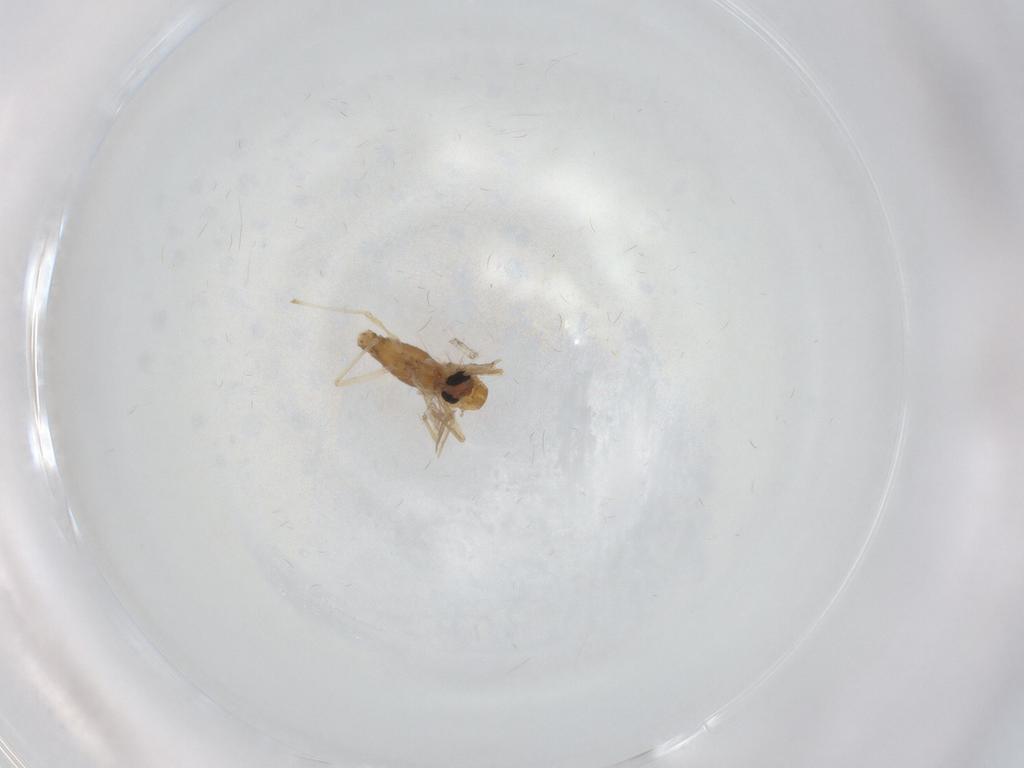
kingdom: Animalia
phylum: Arthropoda
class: Insecta
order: Diptera
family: Chironomidae
